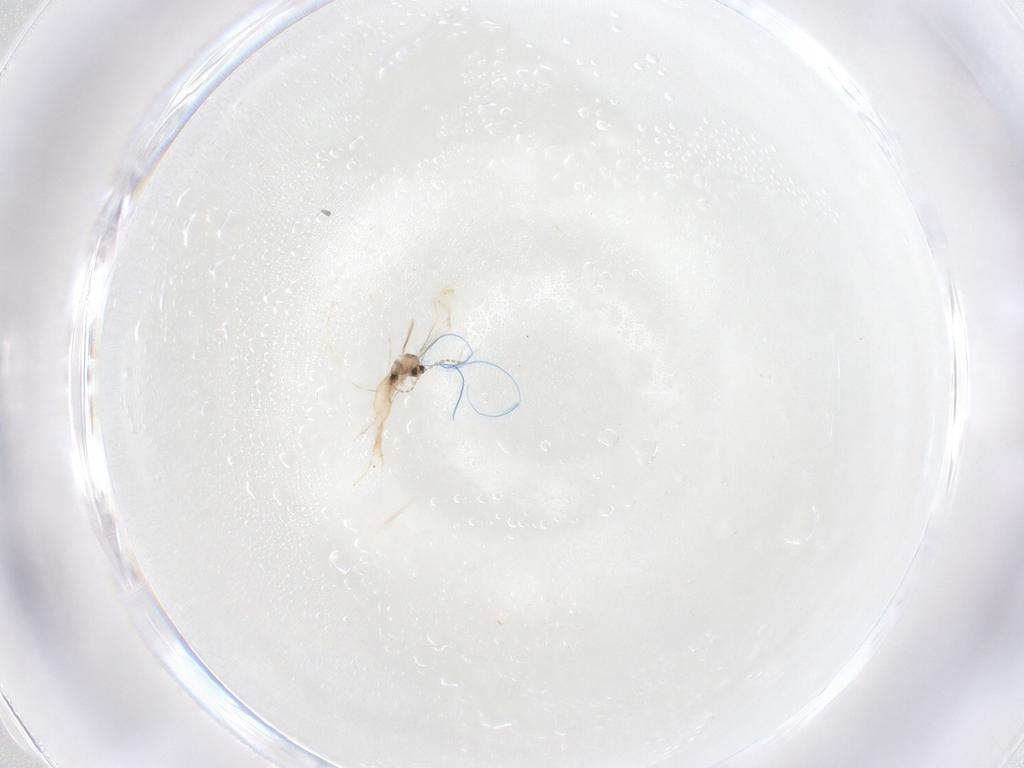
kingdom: Animalia
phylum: Arthropoda
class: Insecta
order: Diptera
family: Cecidomyiidae
